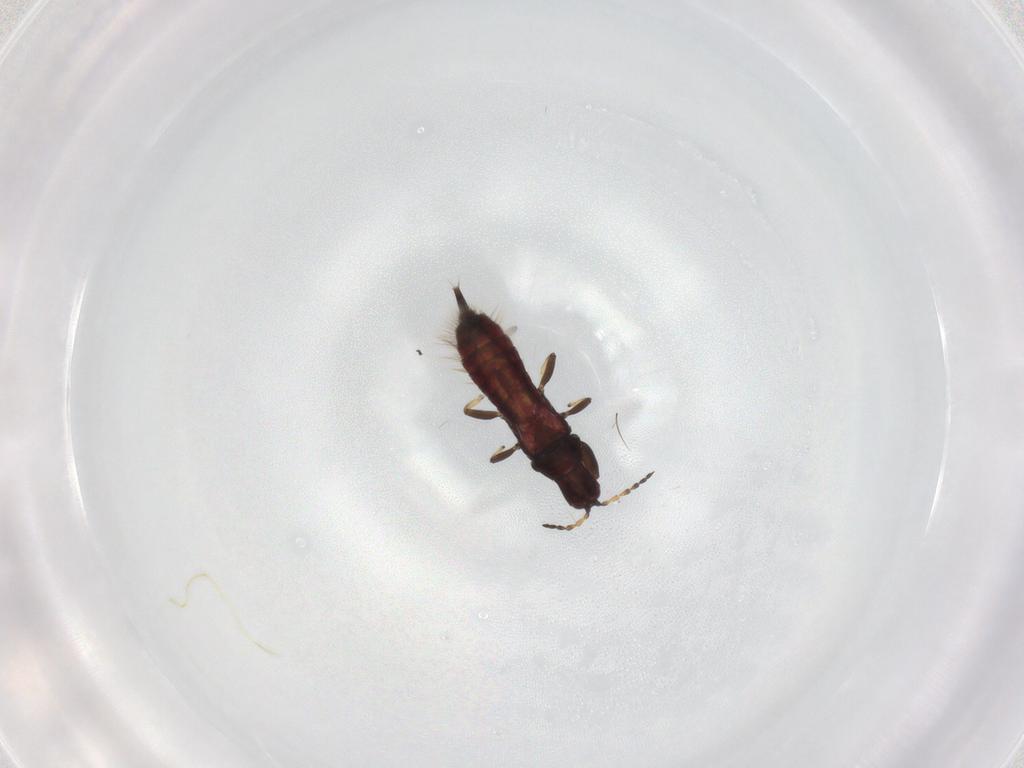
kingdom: Animalia
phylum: Arthropoda
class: Insecta
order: Thysanoptera
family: Phlaeothripidae
